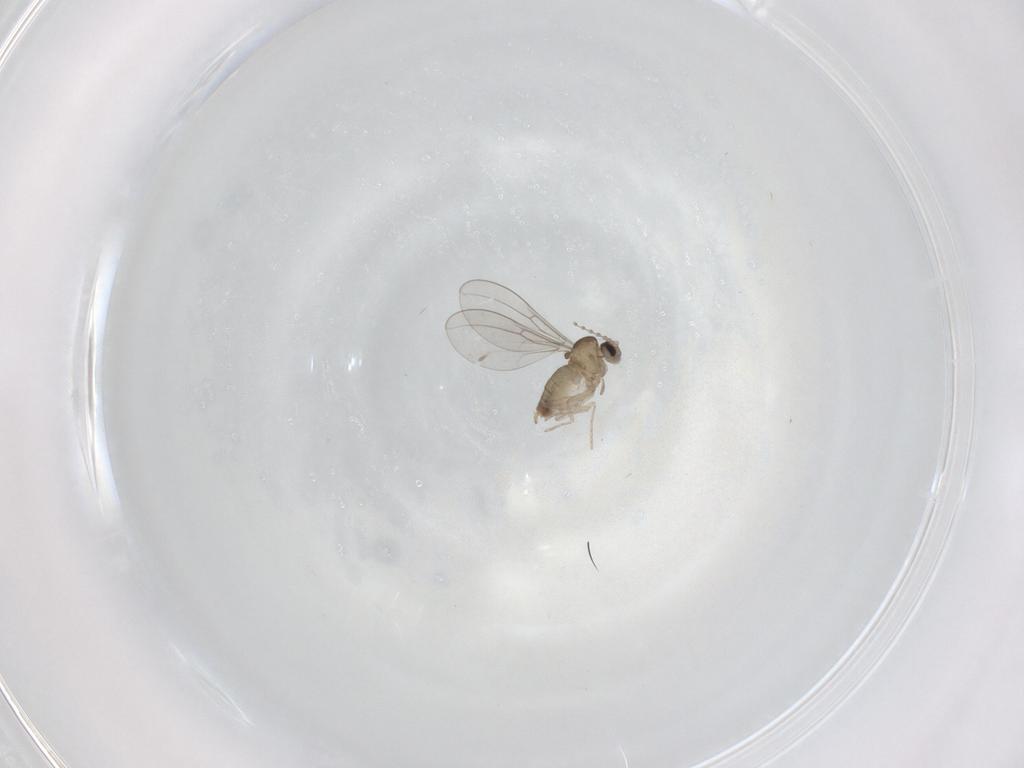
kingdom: Animalia
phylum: Arthropoda
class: Insecta
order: Diptera
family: Cecidomyiidae
